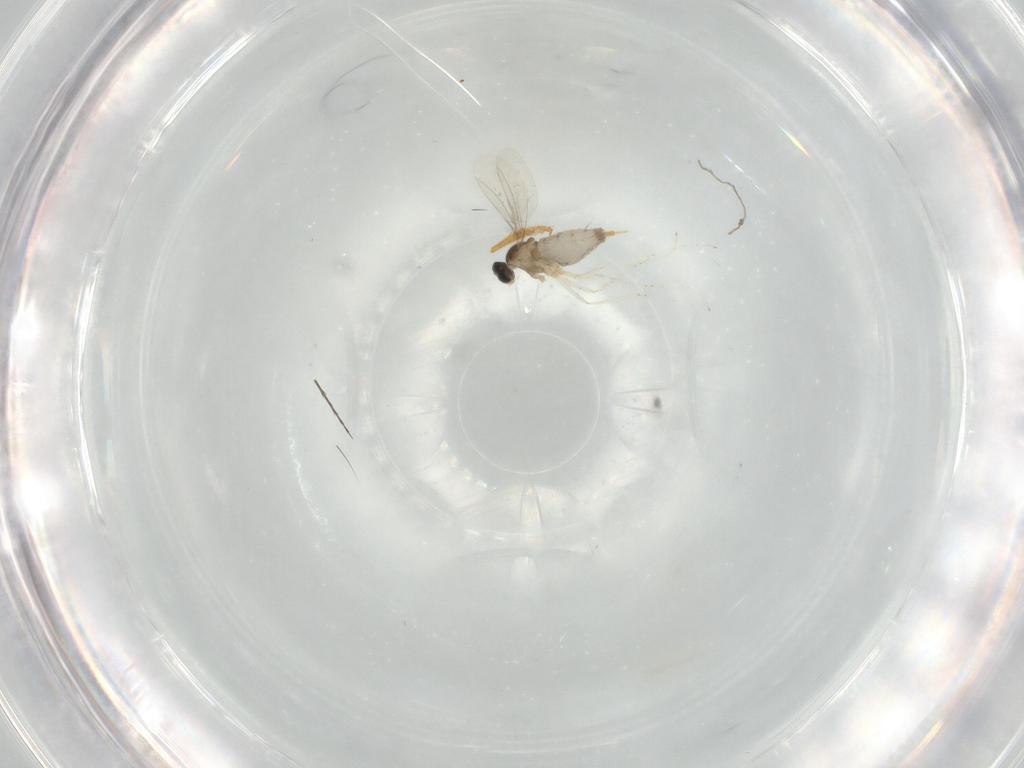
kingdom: Animalia
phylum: Arthropoda
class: Insecta
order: Diptera
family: Cecidomyiidae
